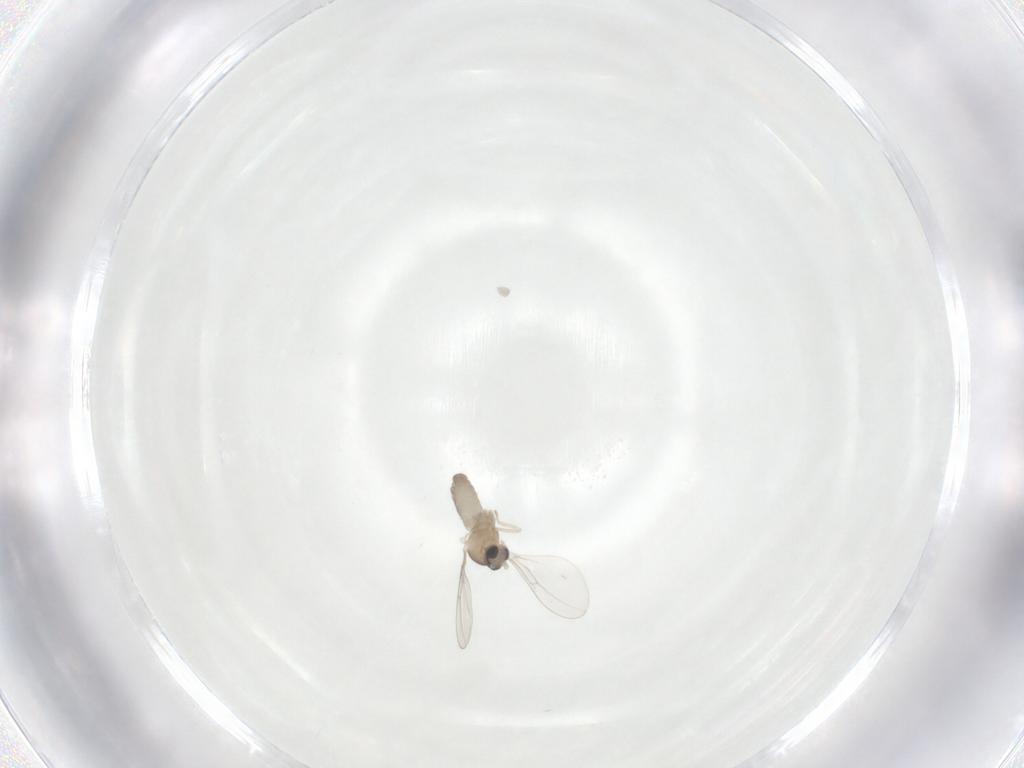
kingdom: Animalia
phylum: Arthropoda
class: Insecta
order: Diptera
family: Cecidomyiidae
